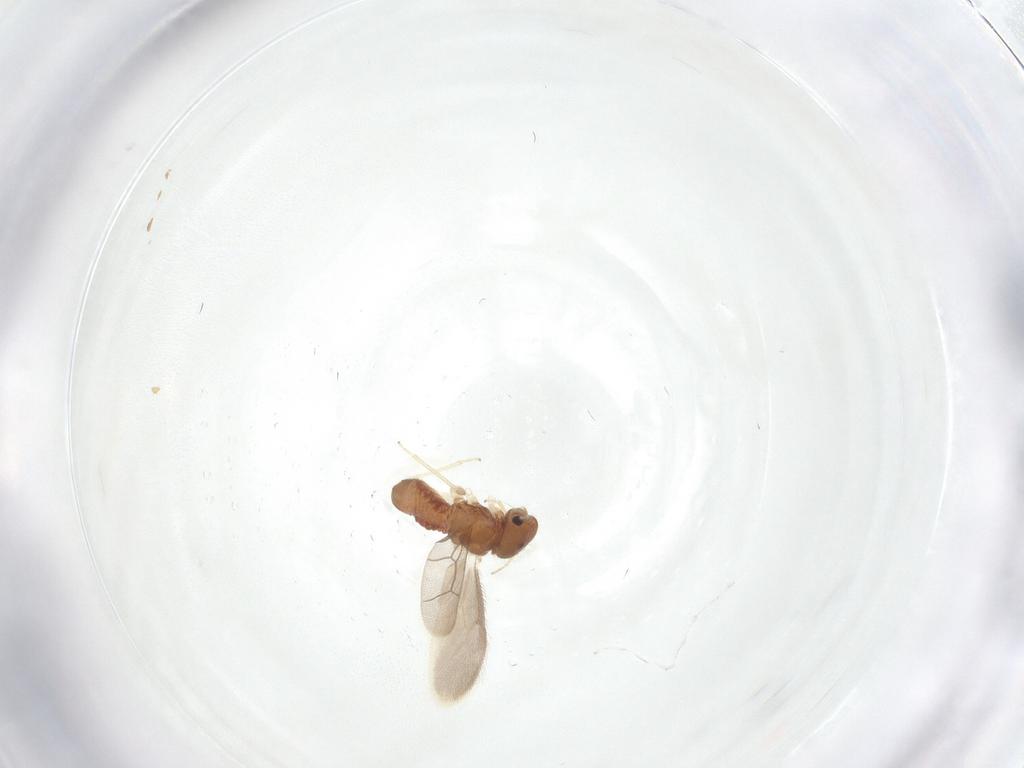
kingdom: Animalia
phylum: Arthropoda
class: Insecta
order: Psocodea
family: Archipsocidae
